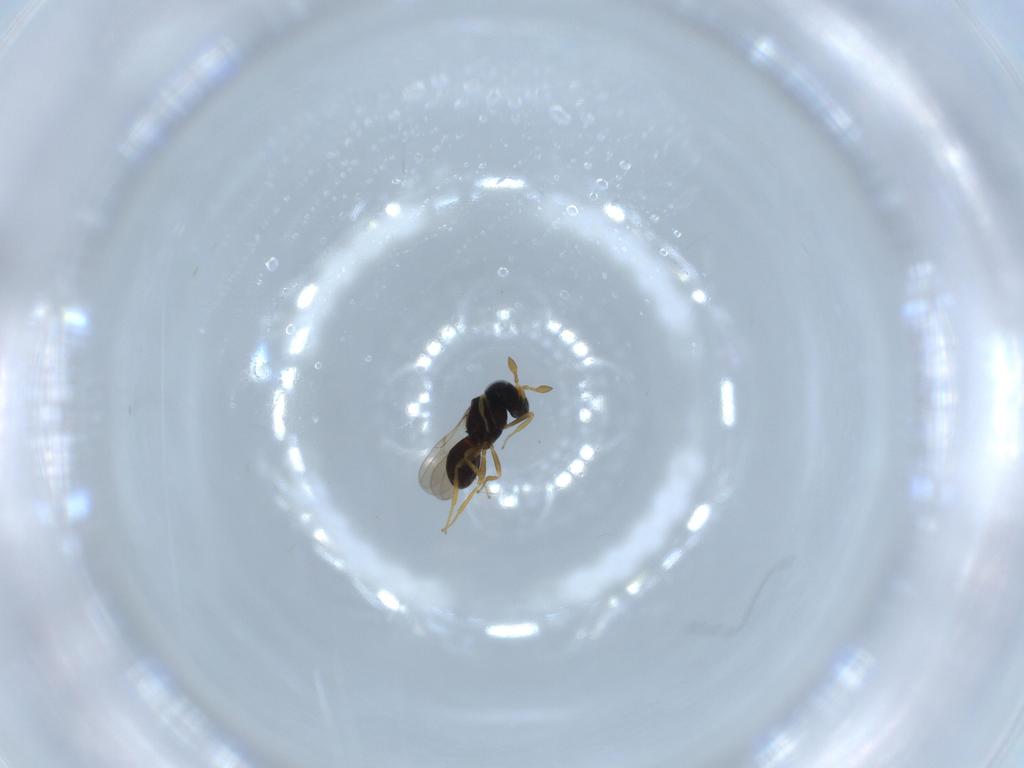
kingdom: Animalia
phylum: Arthropoda
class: Insecta
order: Hymenoptera
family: Scelionidae
